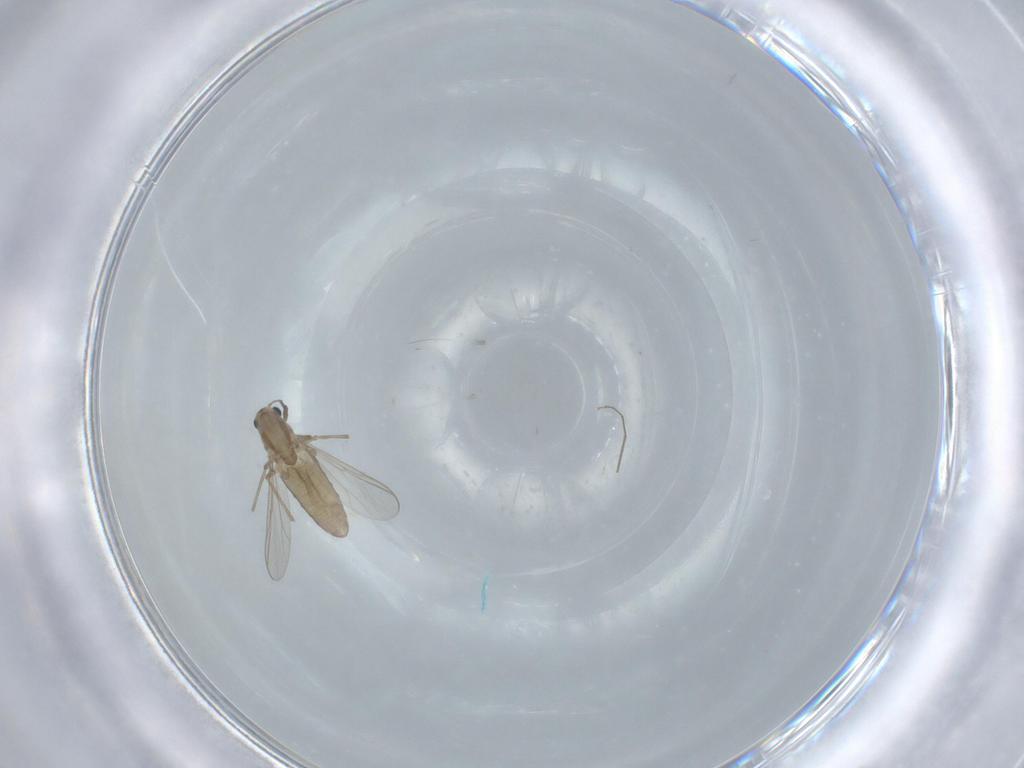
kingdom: Animalia
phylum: Arthropoda
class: Insecta
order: Diptera
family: Chironomidae
